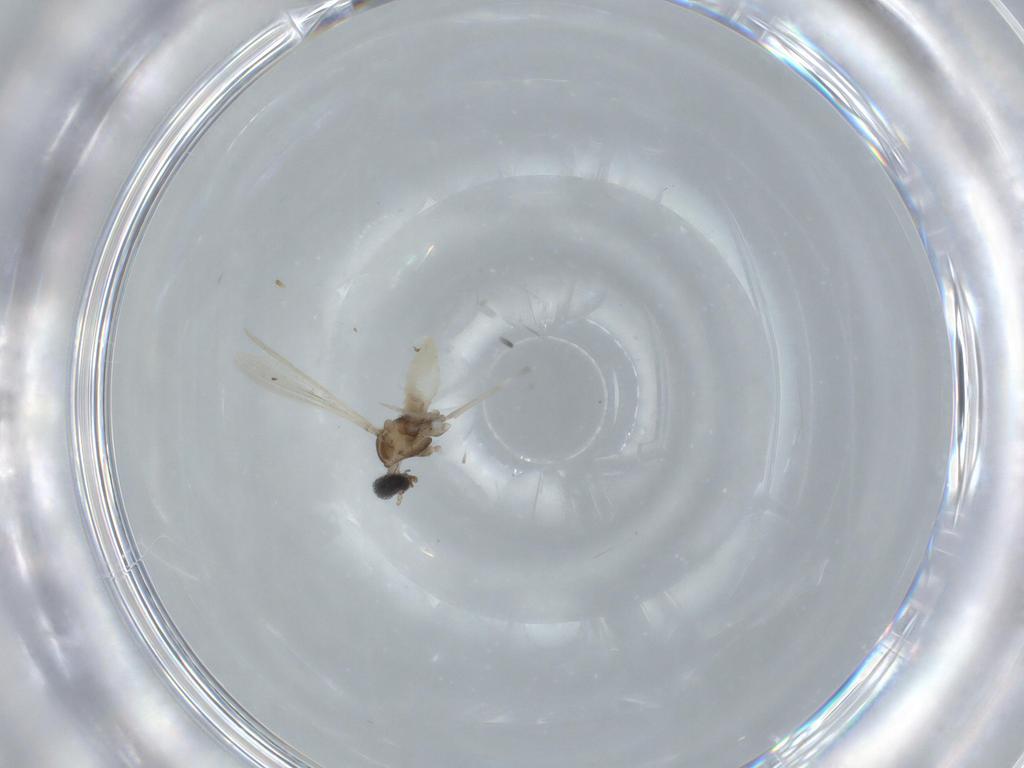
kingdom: Animalia
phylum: Arthropoda
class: Insecta
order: Diptera
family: Cecidomyiidae
